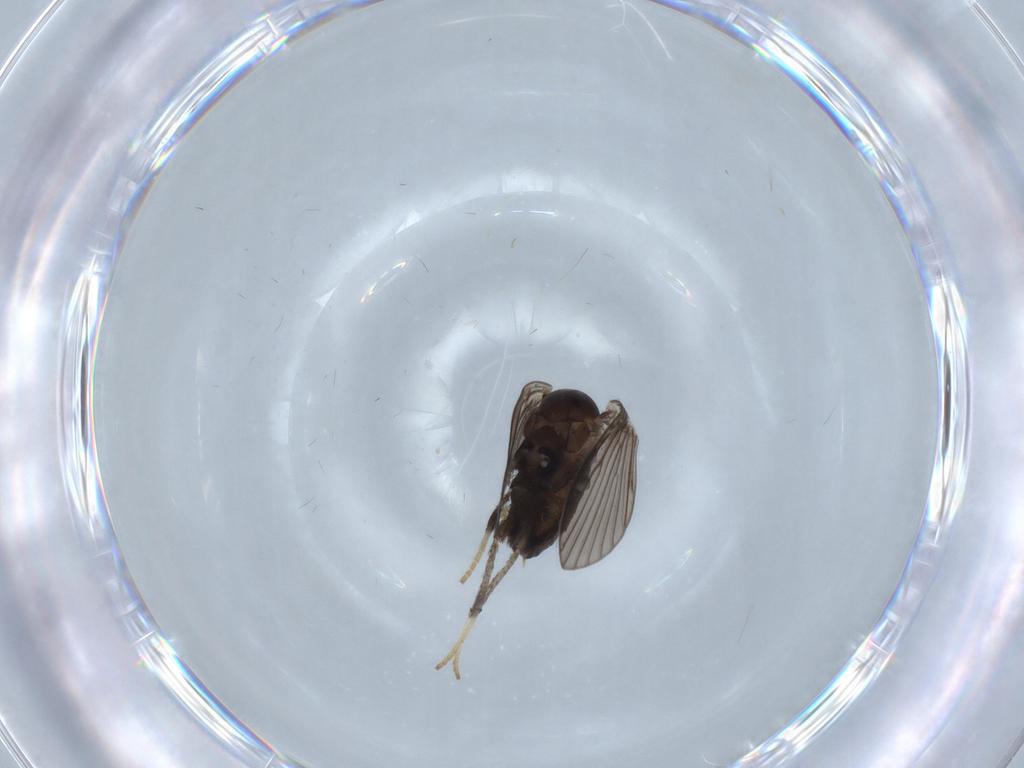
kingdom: Animalia
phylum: Arthropoda
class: Insecta
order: Diptera
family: Psychodidae
